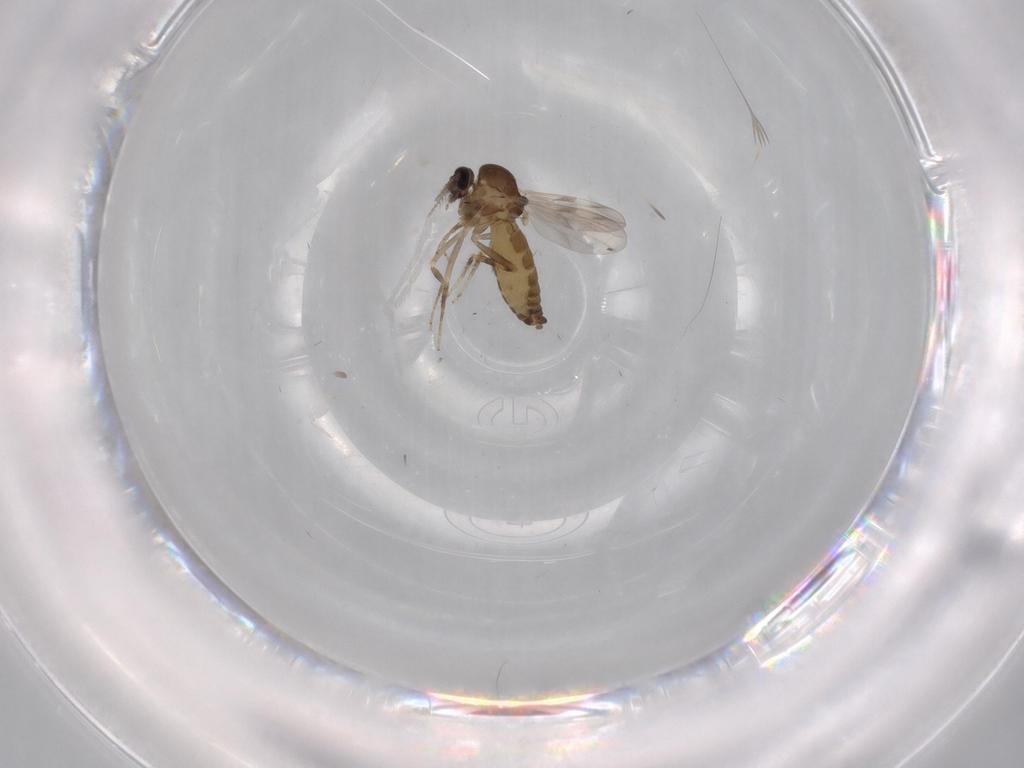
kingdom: Animalia
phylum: Arthropoda
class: Insecta
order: Diptera
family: Ceratopogonidae
